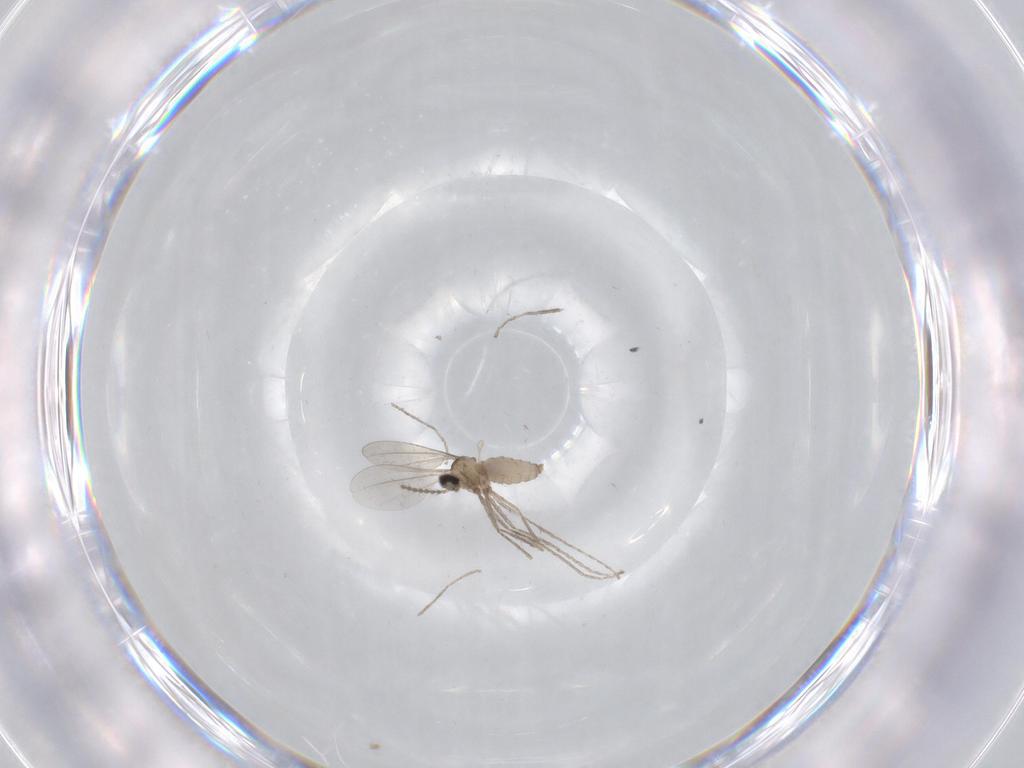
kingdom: Animalia
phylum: Arthropoda
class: Insecta
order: Diptera
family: Cecidomyiidae
